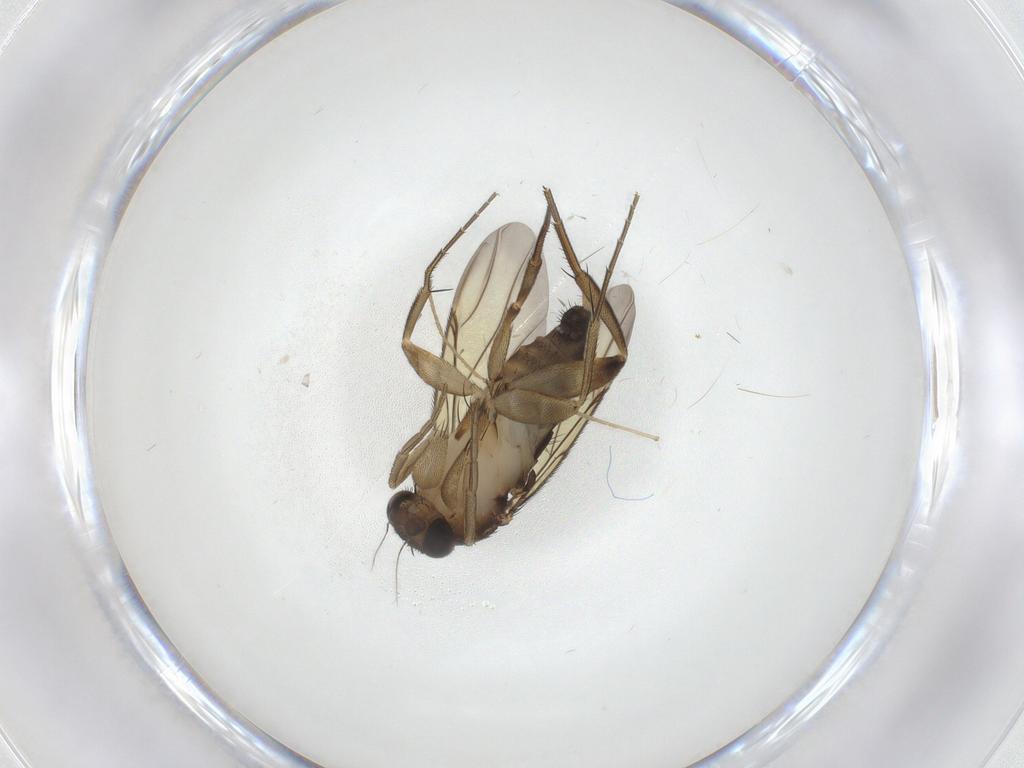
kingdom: Animalia
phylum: Arthropoda
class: Insecta
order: Diptera
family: Chironomidae
